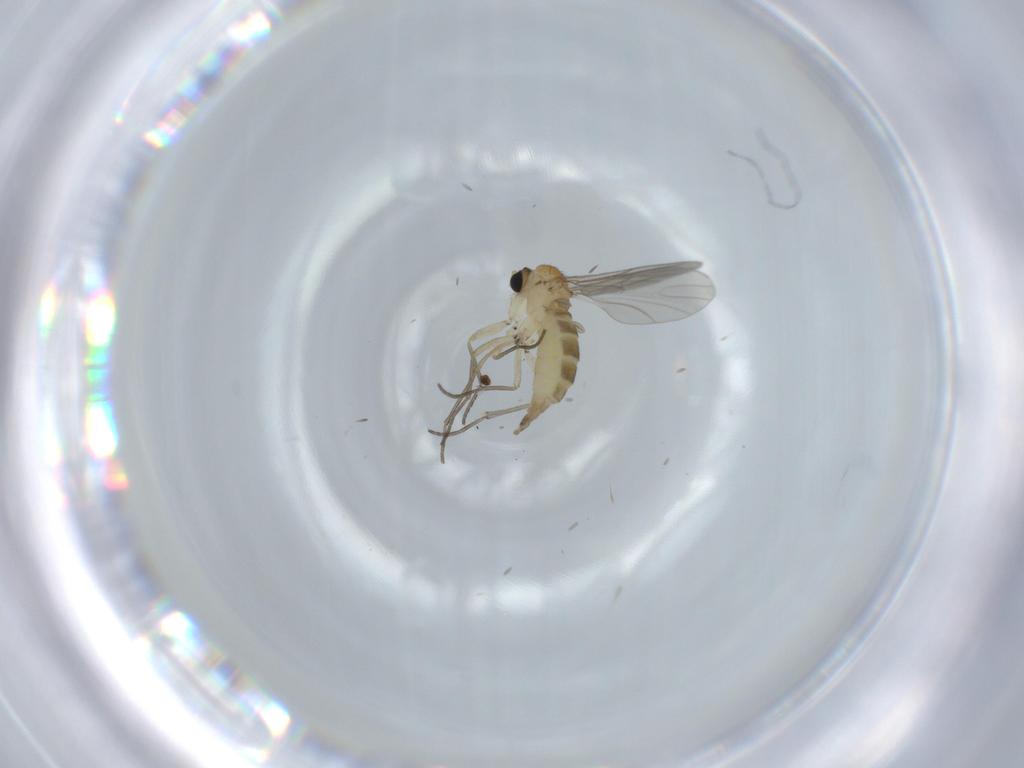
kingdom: Animalia
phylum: Arthropoda
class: Insecta
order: Diptera
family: Sciaridae
